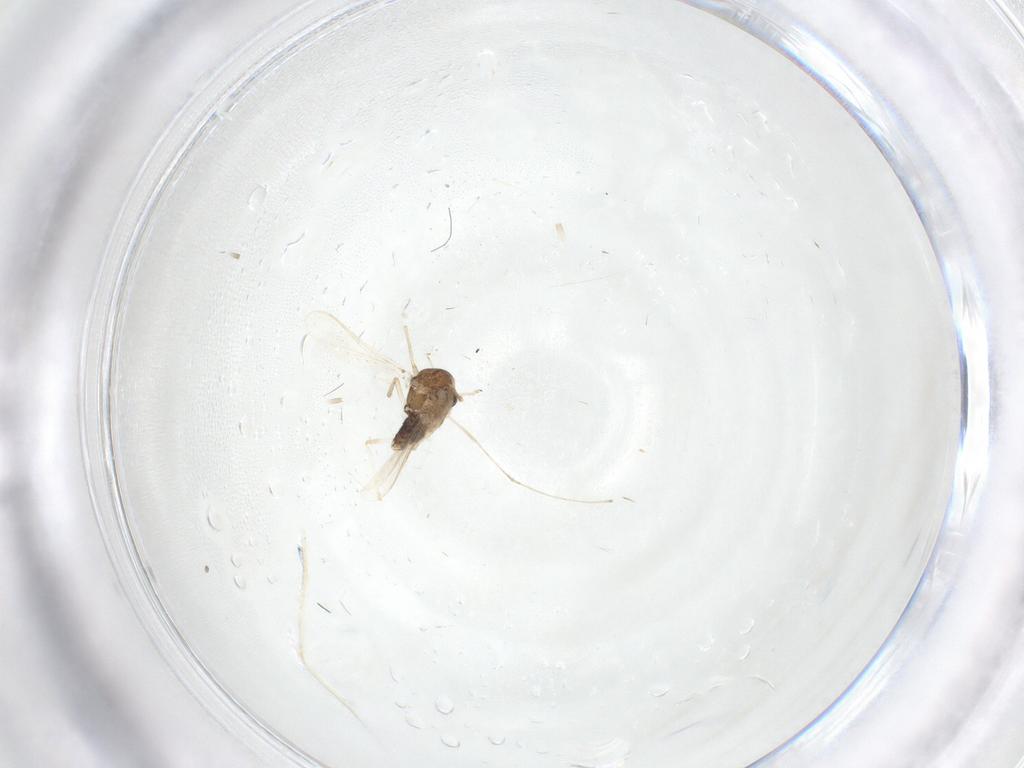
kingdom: Animalia
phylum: Arthropoda
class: Insecta
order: Diptera
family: Chironomidae
